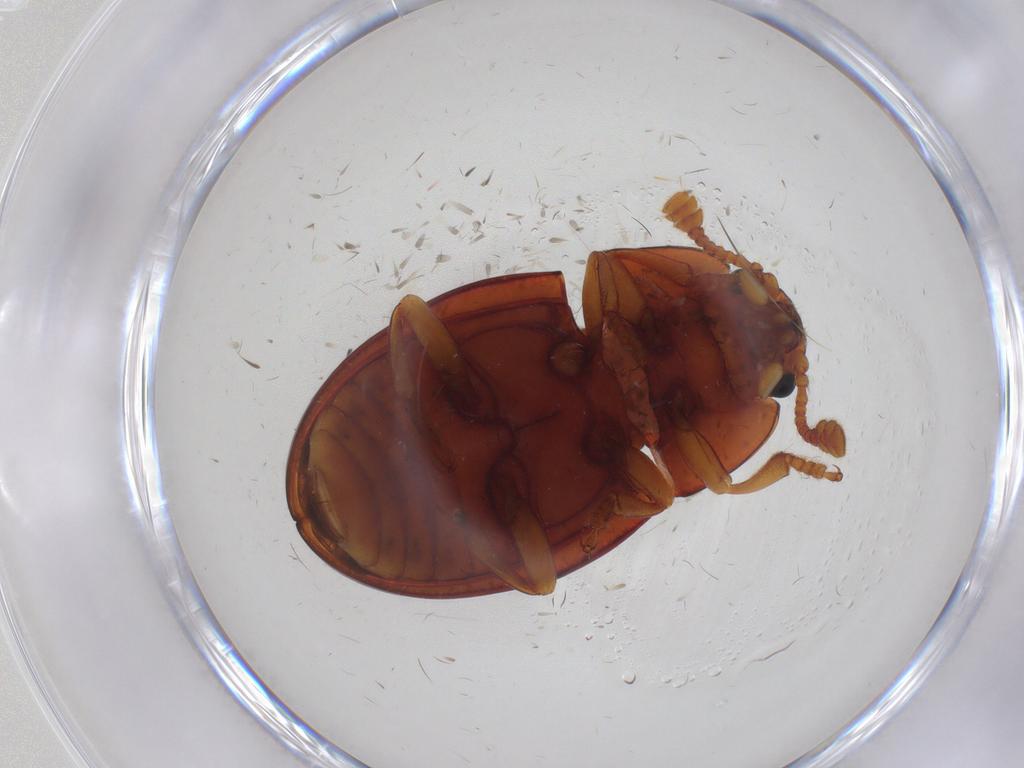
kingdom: Animalia
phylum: Arthropoda
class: Insecta
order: Coleoptera
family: Endomychidae
